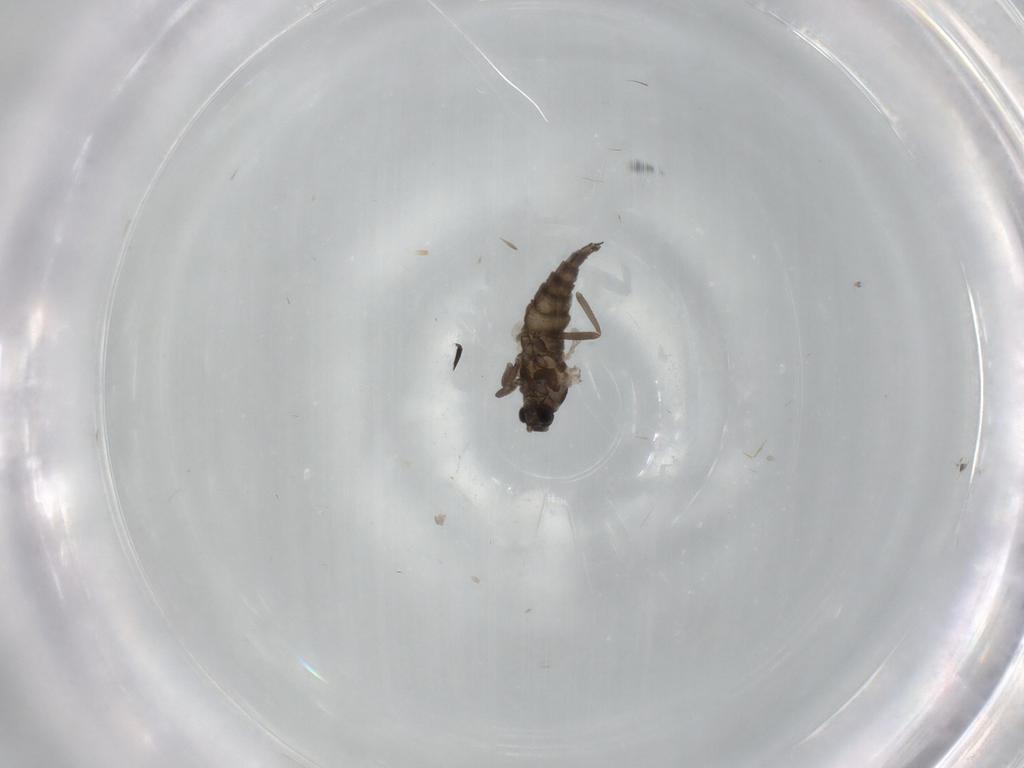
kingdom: Animalia
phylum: Arthropoda
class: Insecta
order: Diptera
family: Cecidomyiidae
